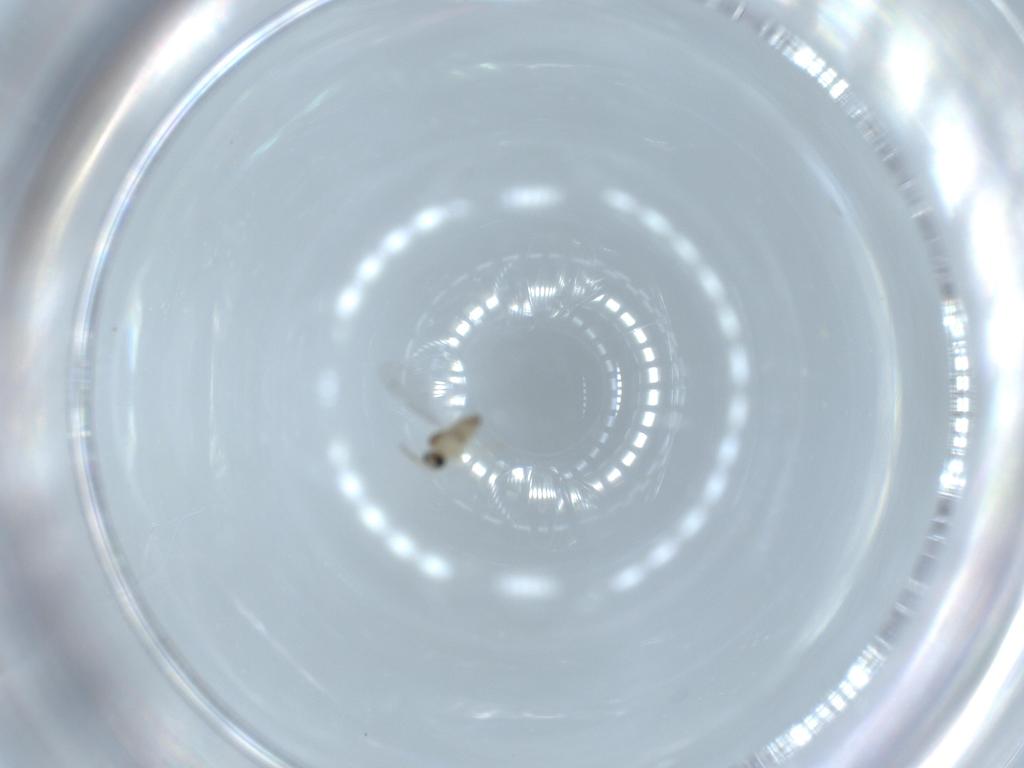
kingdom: Animalia
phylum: Arthropoda
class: Insecta
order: Diptera
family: Cecidomyiidae
